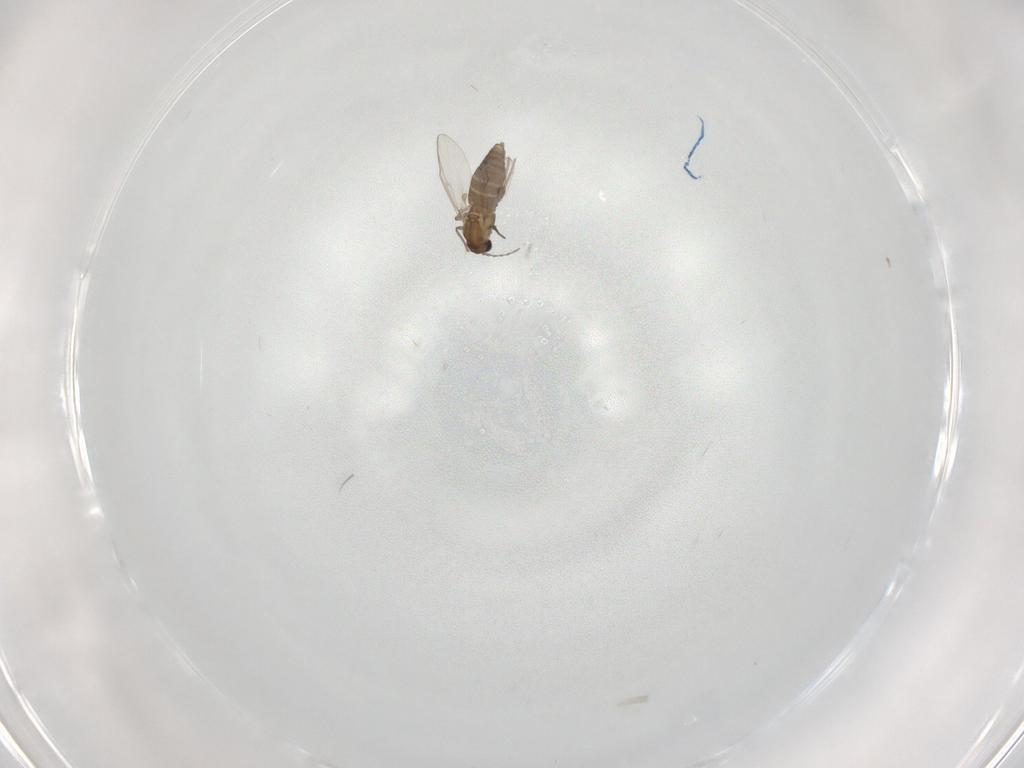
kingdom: Animalia
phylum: Arthropoda
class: Insecta
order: Diptera
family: Chironomidae
